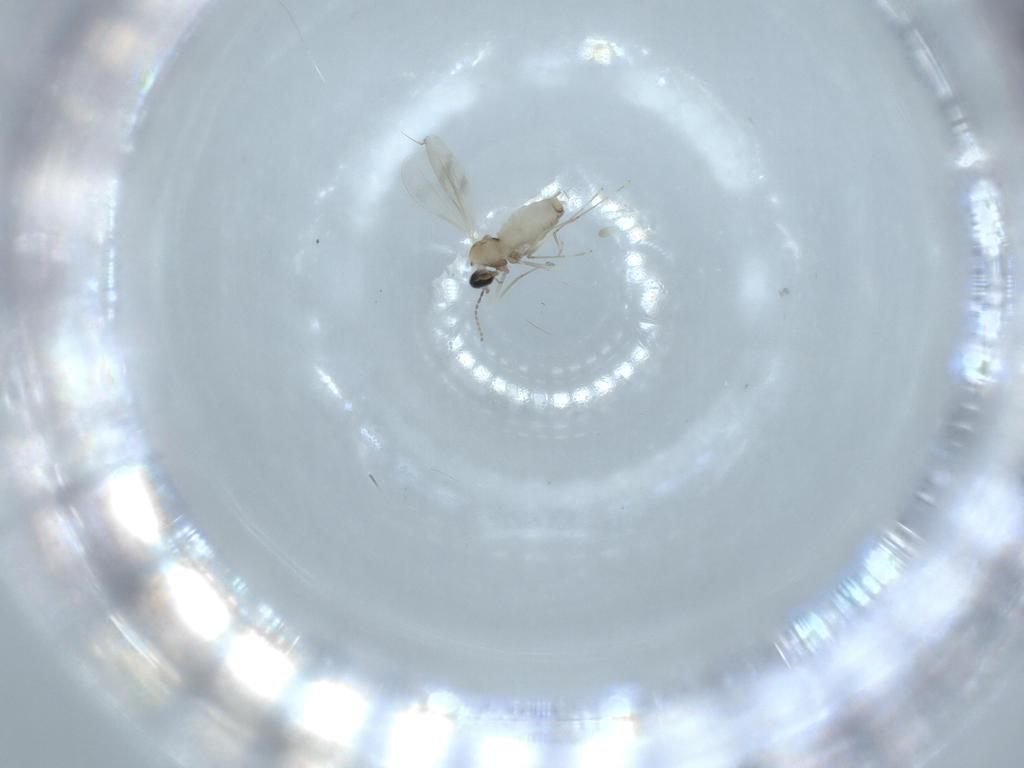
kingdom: Animalia
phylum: Arthropoda
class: Insecta
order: Diptera
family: Cecidomyiidae
